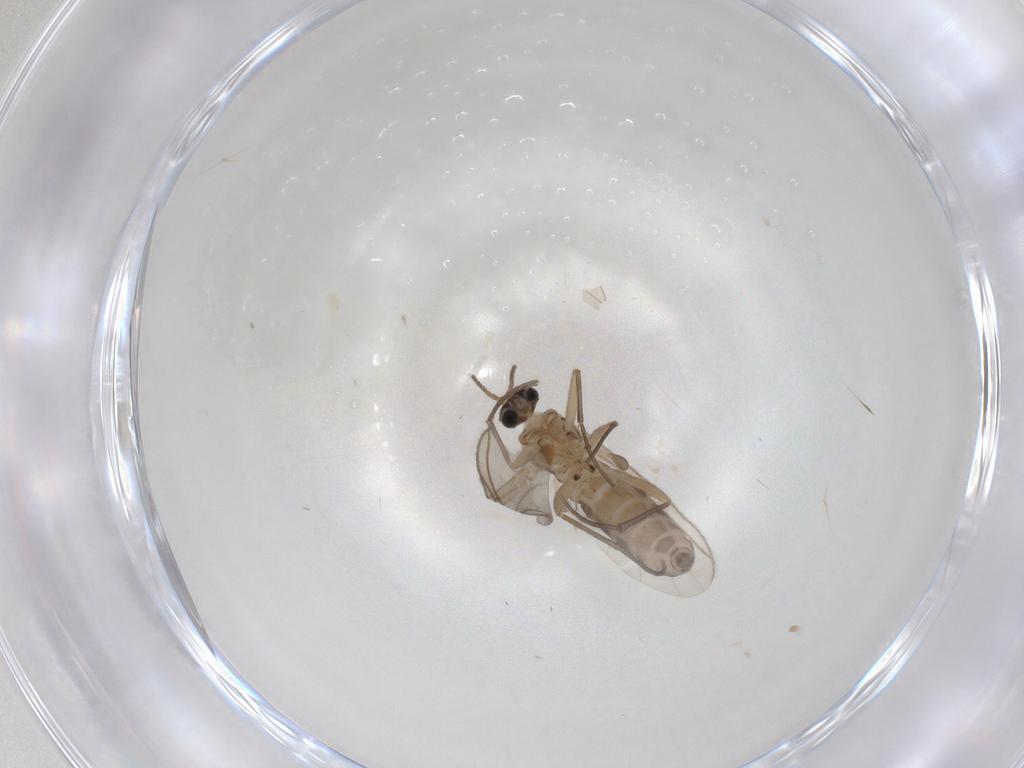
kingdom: Animalia
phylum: Arthropoda
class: Insecta
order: Diptera
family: Sciaridae
